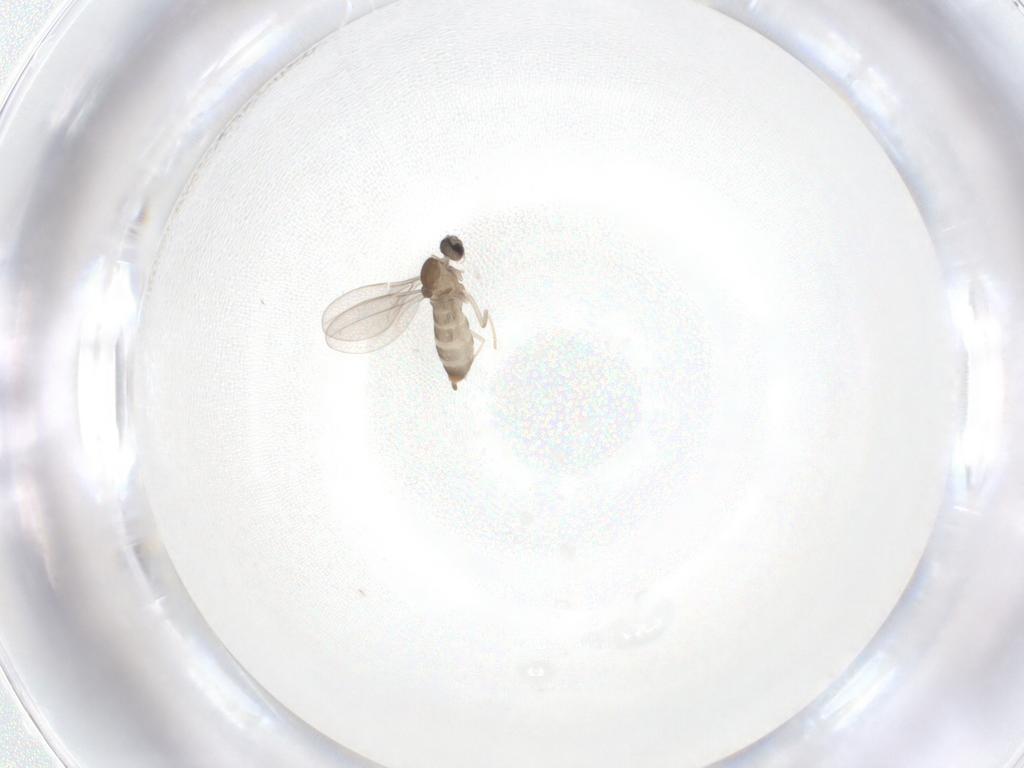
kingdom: Animalia
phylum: Arthropoda
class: Insecta
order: Diptera
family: Cecidomyiidae
